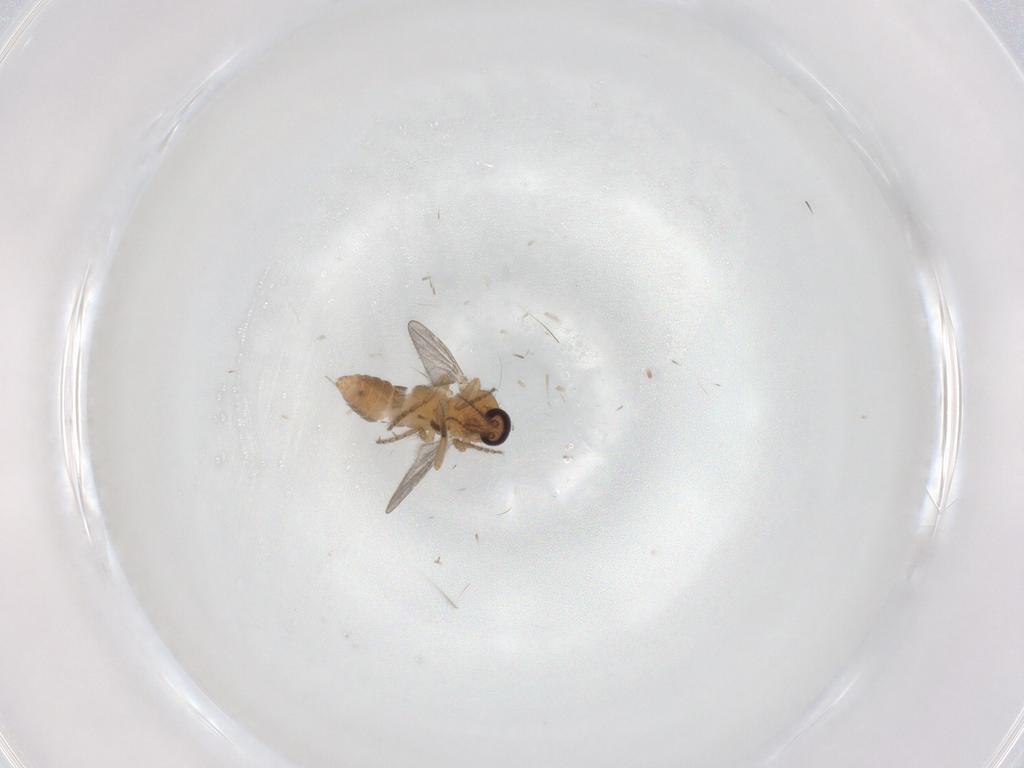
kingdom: Animalia
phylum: Arthropoda
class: Insecta
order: Diptera
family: Ceratopogonidae
